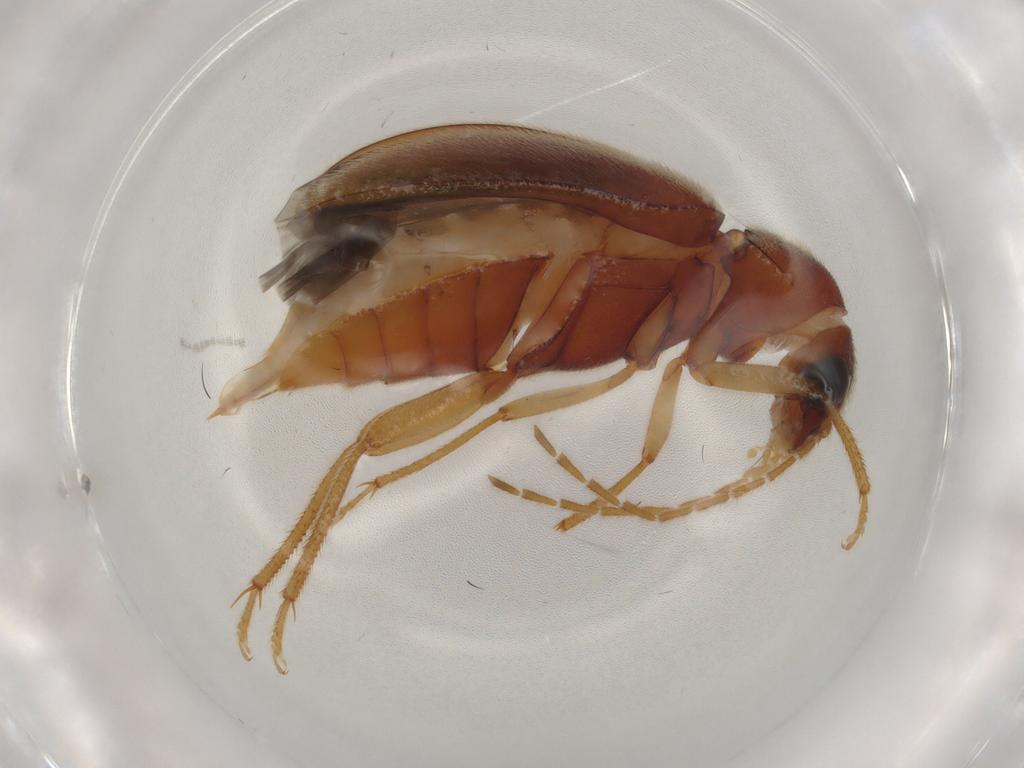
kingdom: Animalia
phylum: Arthropoda
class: Insecta
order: Coleoptera
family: Ptilodactylidae
